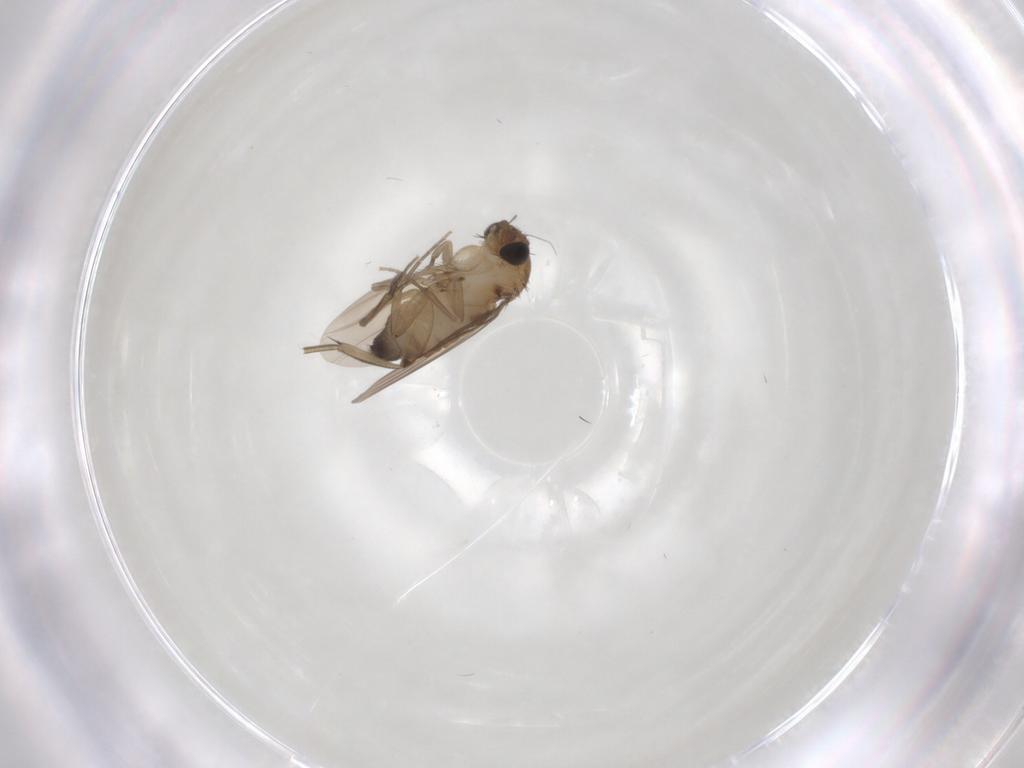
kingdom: Animalia
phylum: Arthropoda
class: Insecta
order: Diptera
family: Phoridae
